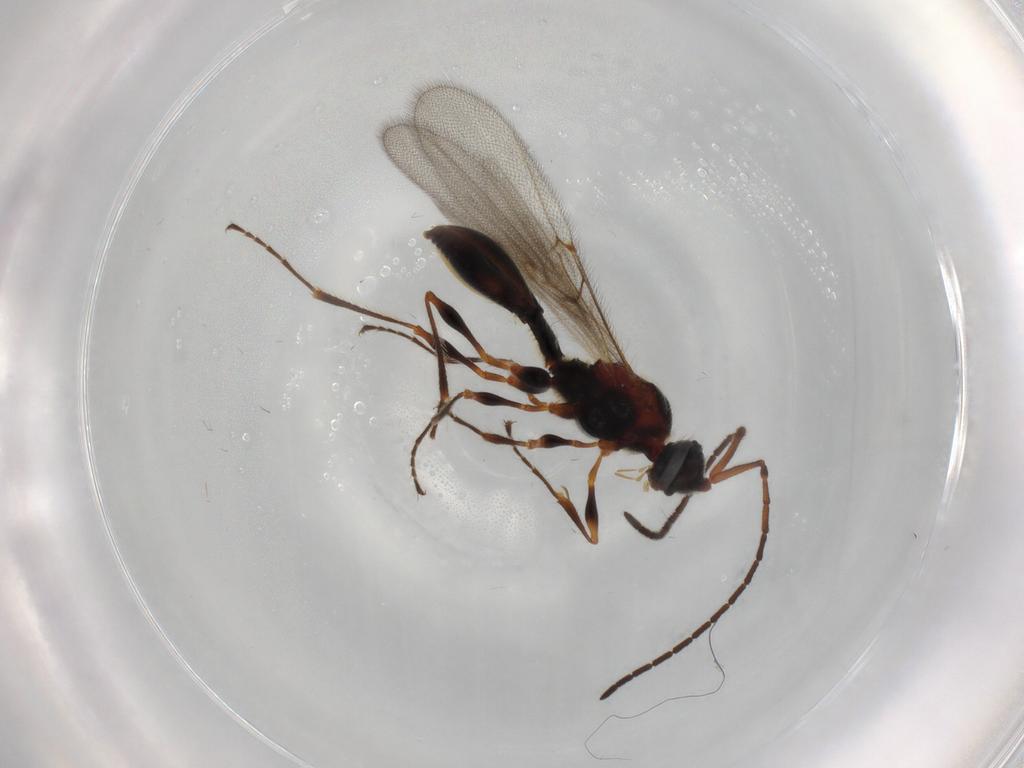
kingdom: Animalia
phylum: Arthropoda
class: Insecta
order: Hymenoptera
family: Diapriidae
